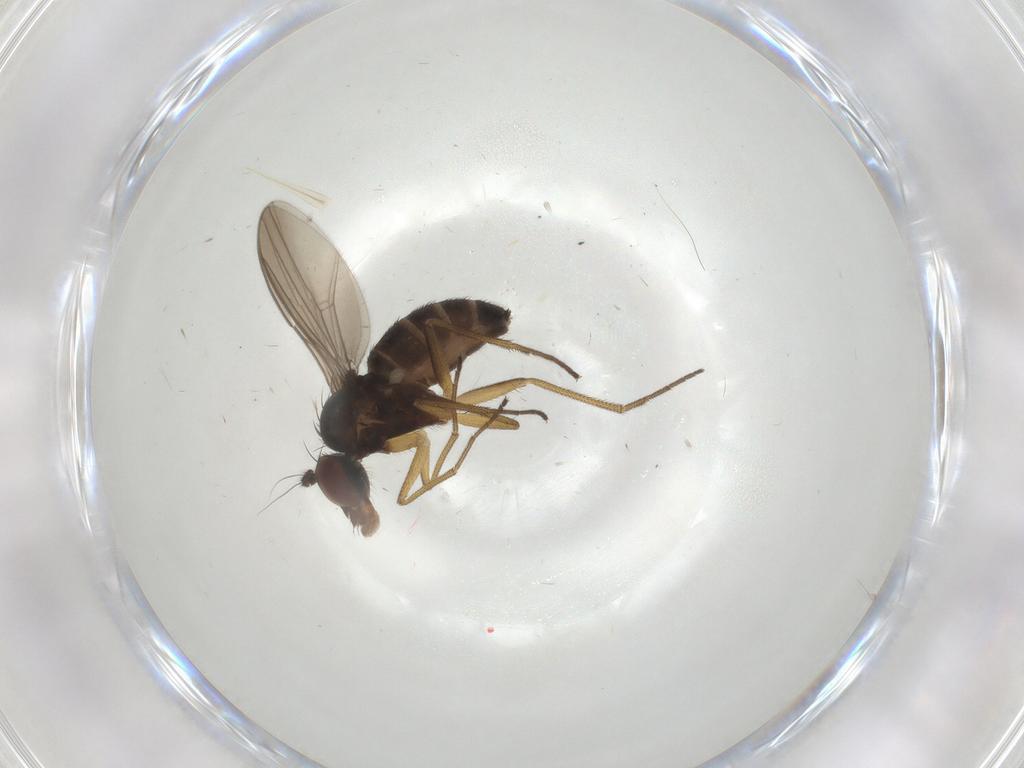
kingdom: Animalia
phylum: Arthropoda
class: Insecta
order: Diptera
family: Dolichopodidae
